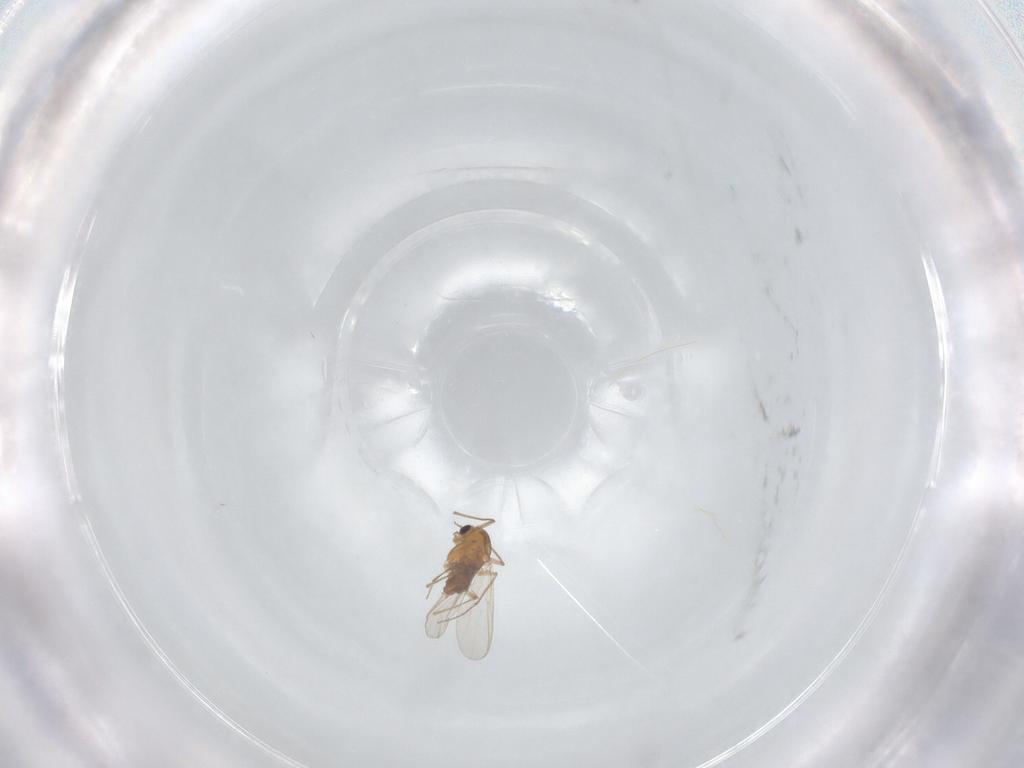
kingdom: Animalia
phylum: Arthropoda
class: Insecta
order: Diptera
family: Chironomidae
